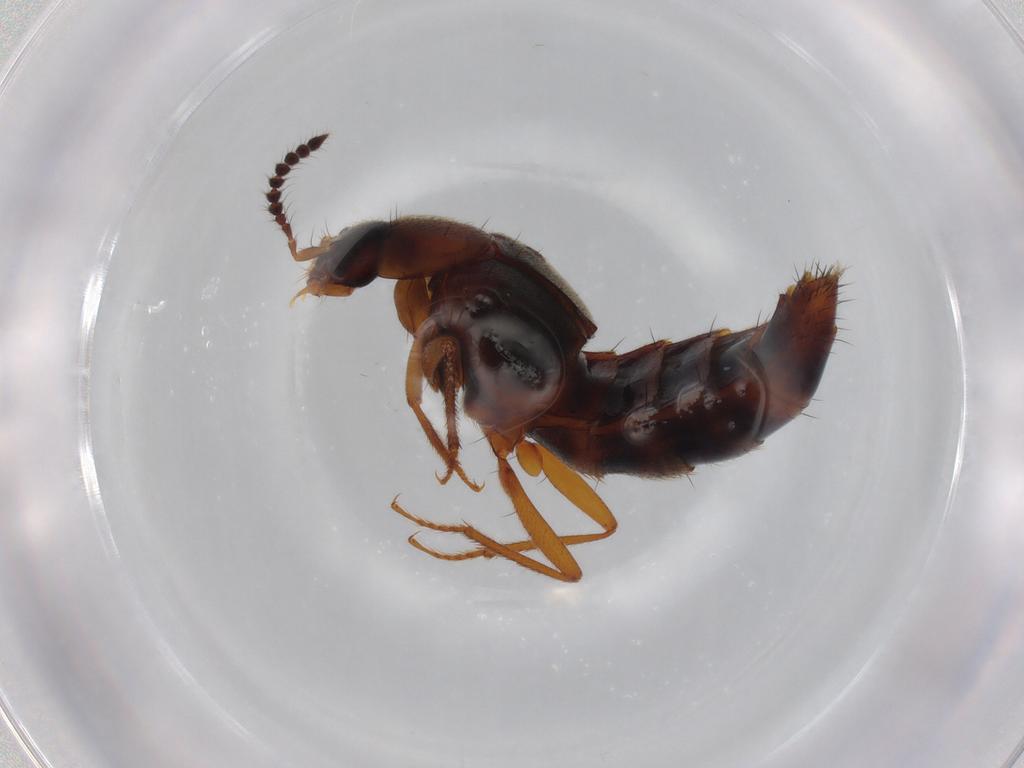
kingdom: Animalia
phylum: Arthropoda
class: Insecta
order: Coleoptera
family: Staphylinidae
